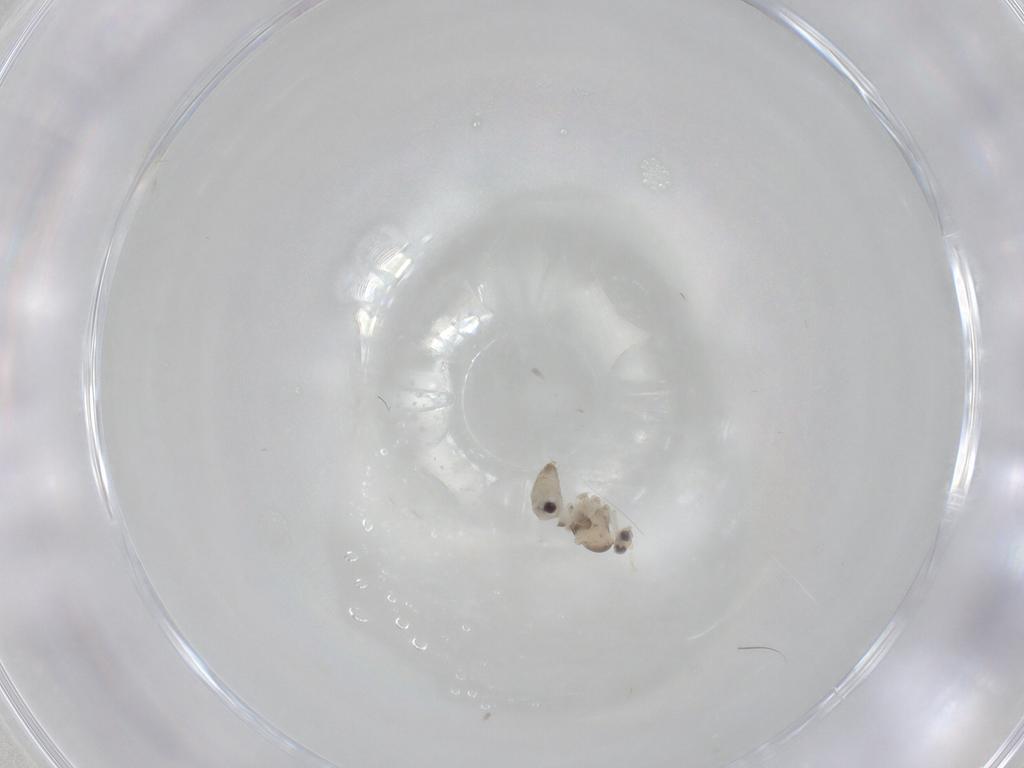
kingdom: Animalia
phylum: Arthropoda
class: Insecta
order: Diptera
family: Cecidomyiidae
